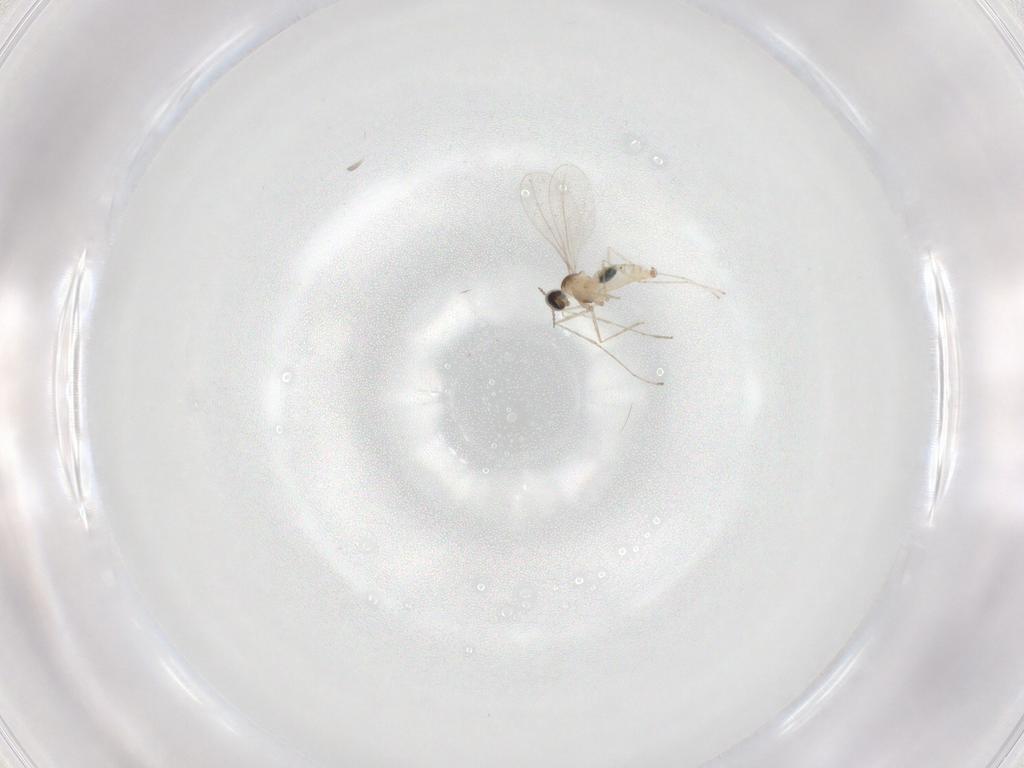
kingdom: Animalia
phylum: Arthropoda
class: Insecta
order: Diptera
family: Cecidomyiidae
